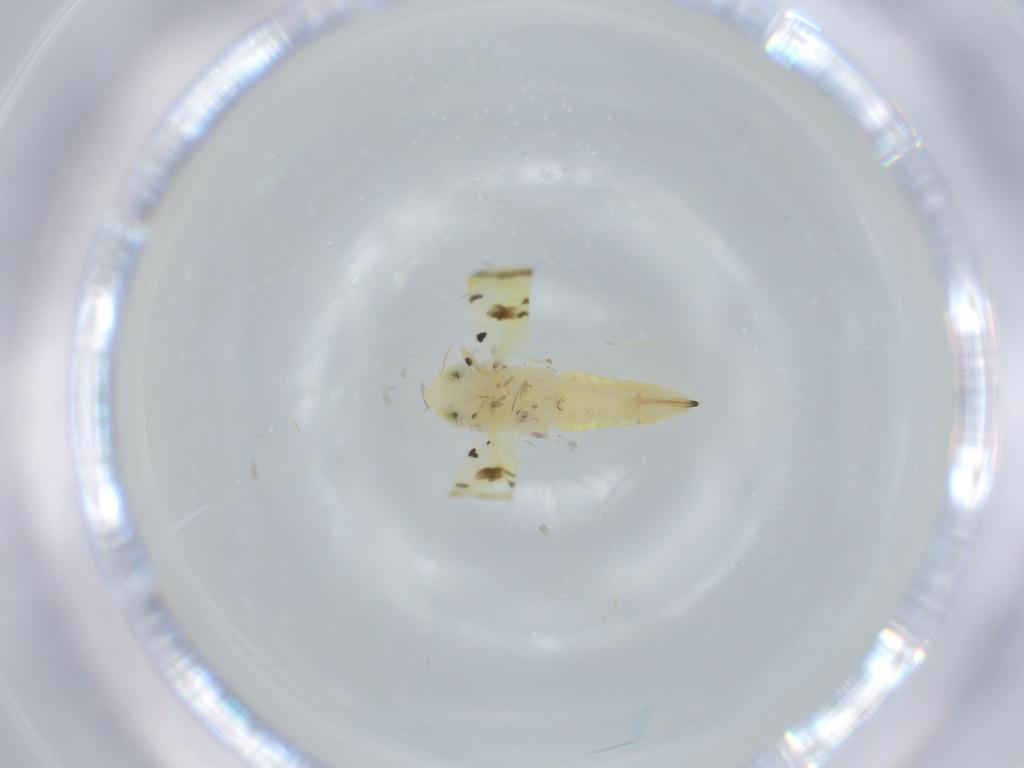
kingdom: Animalia
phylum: Arthropoda
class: Insecta
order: Hemiptera
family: Cicadellidae
